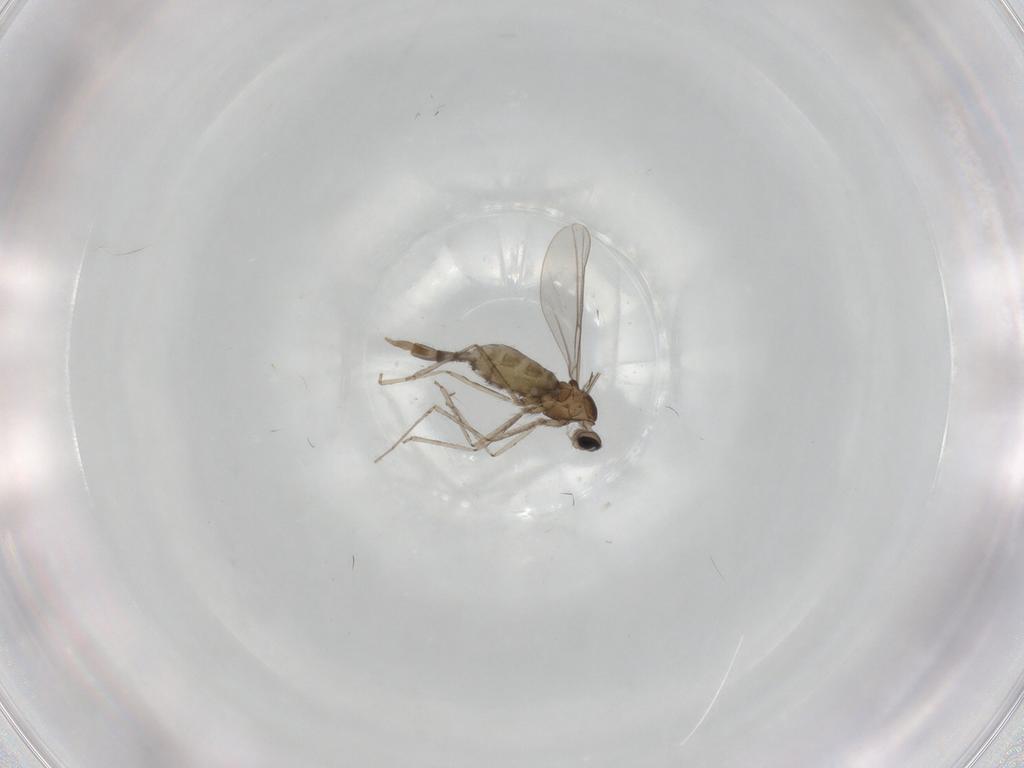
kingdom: Animalia
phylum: Arthropoda
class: Insecta
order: Diptera
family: Cecidomyiidae
